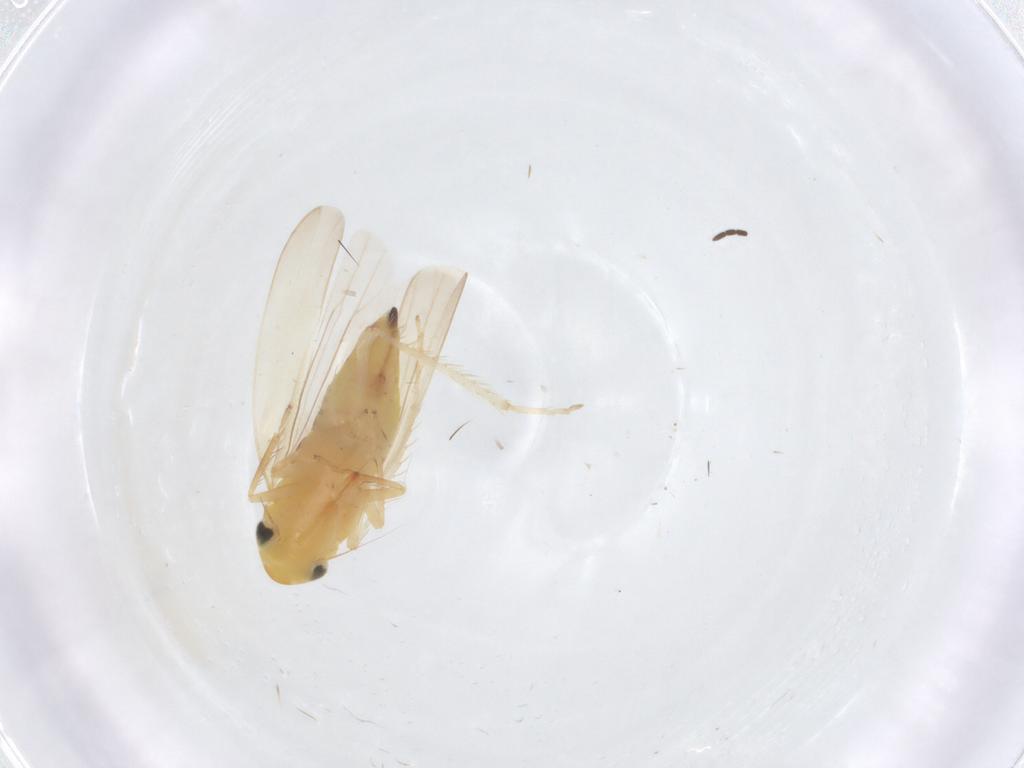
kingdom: Animalia
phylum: Arthropoda
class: Insecta
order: Hemiptera
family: Cicadellidae
